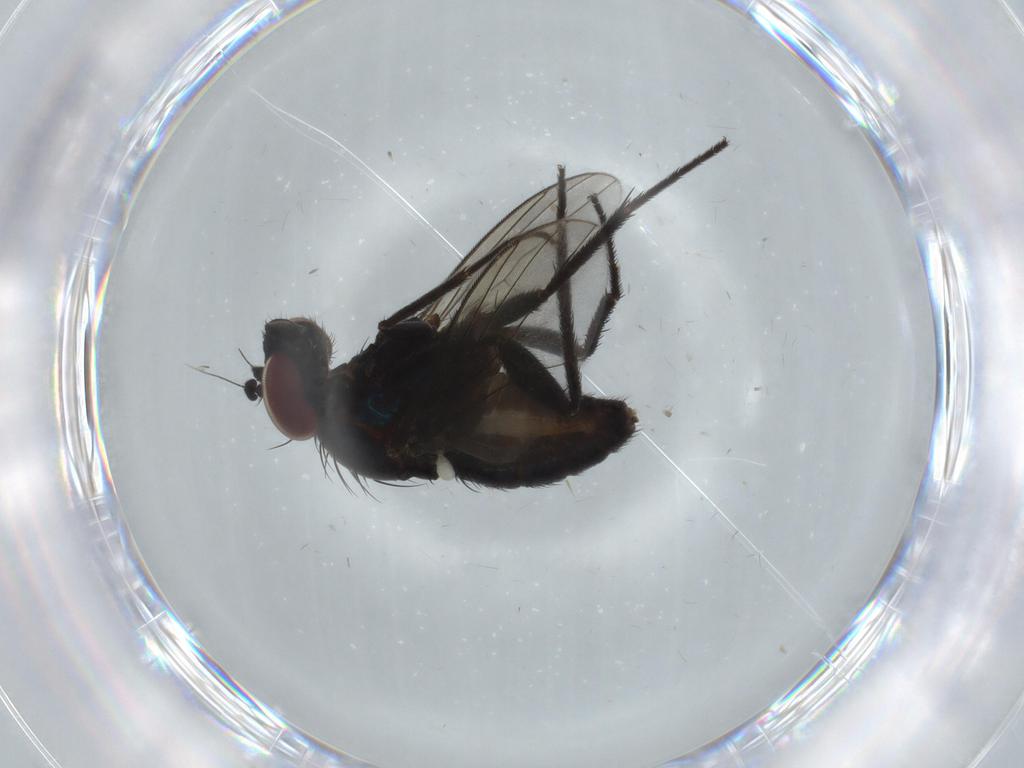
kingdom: Animalia
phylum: Arthropoda
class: Insecta
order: Diptera
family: Dolichopodidae
